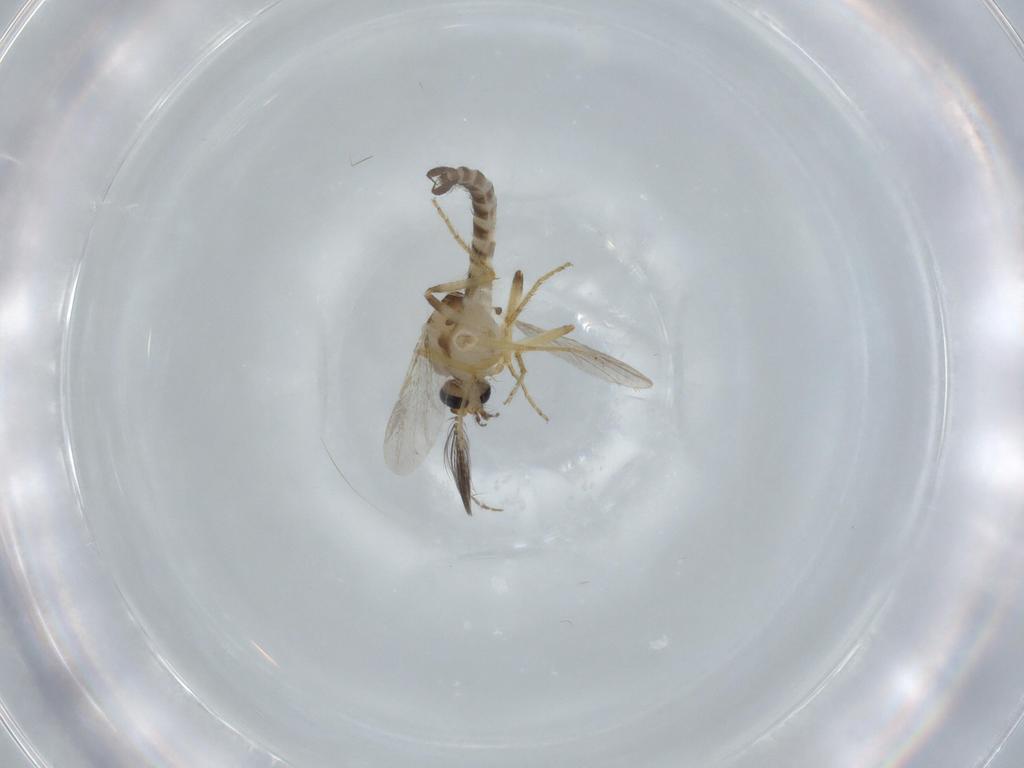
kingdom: Animalia
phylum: Arthropoda
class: Insecta
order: Diptera
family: Ceratopogonidae
